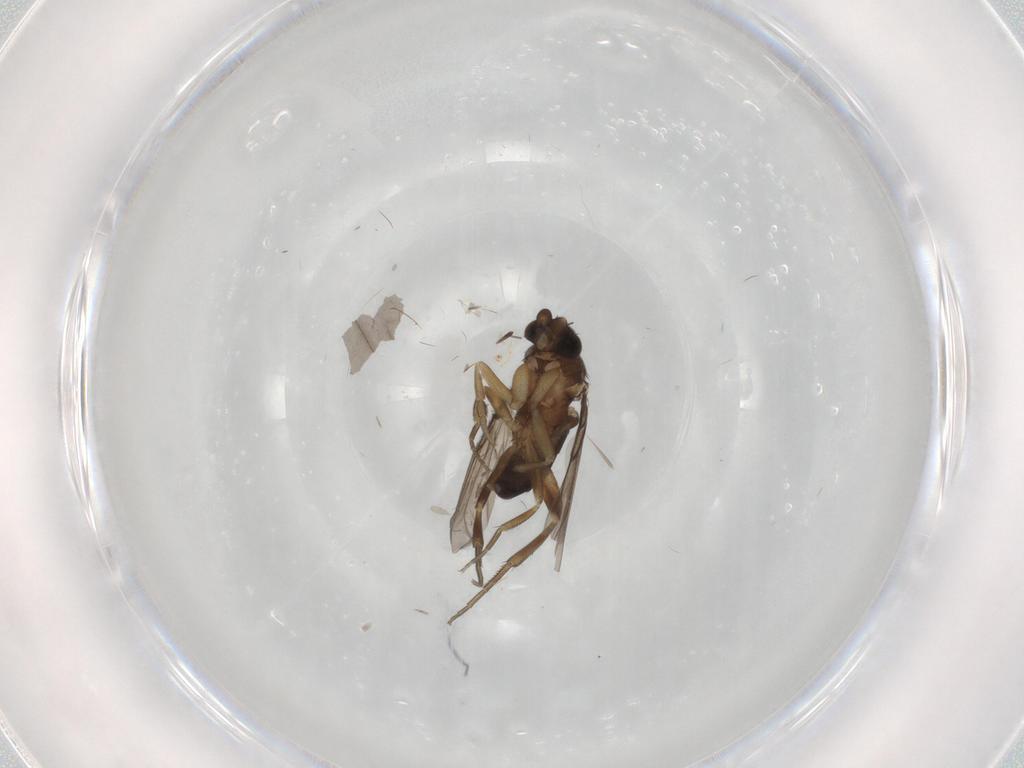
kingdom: Animalia
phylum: Arthropoda
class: Insecta
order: Diptera
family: Phoridae
